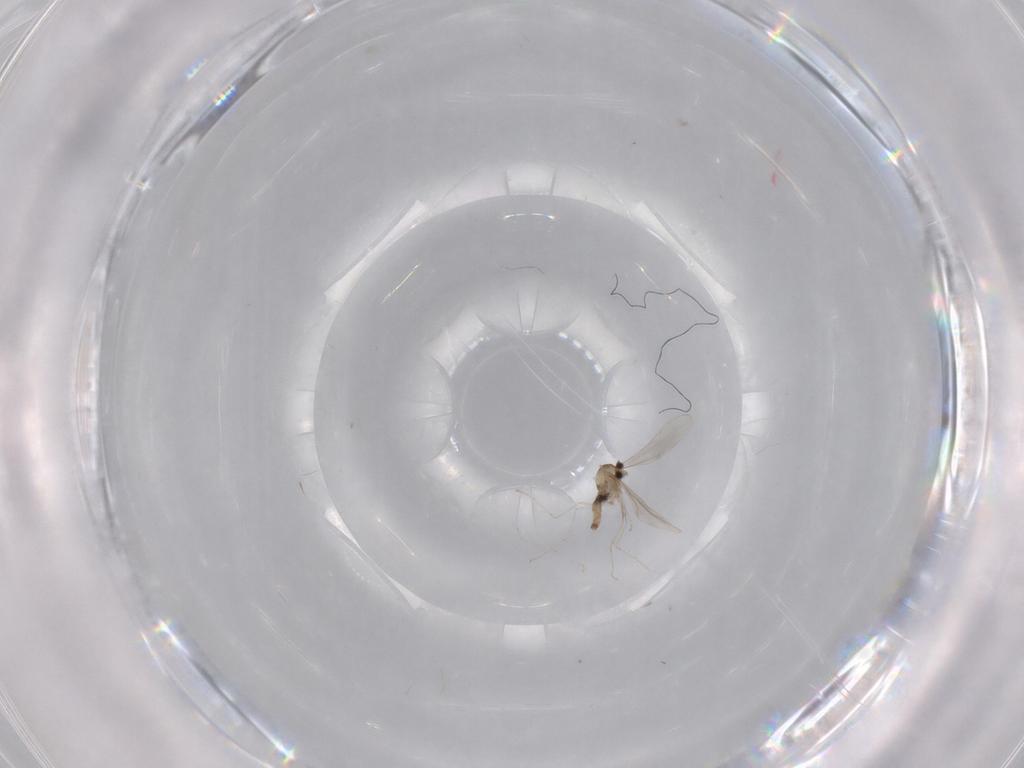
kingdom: Animalia
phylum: Arthropoda
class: Insecta
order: Diptera
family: Cecidomyiidae
